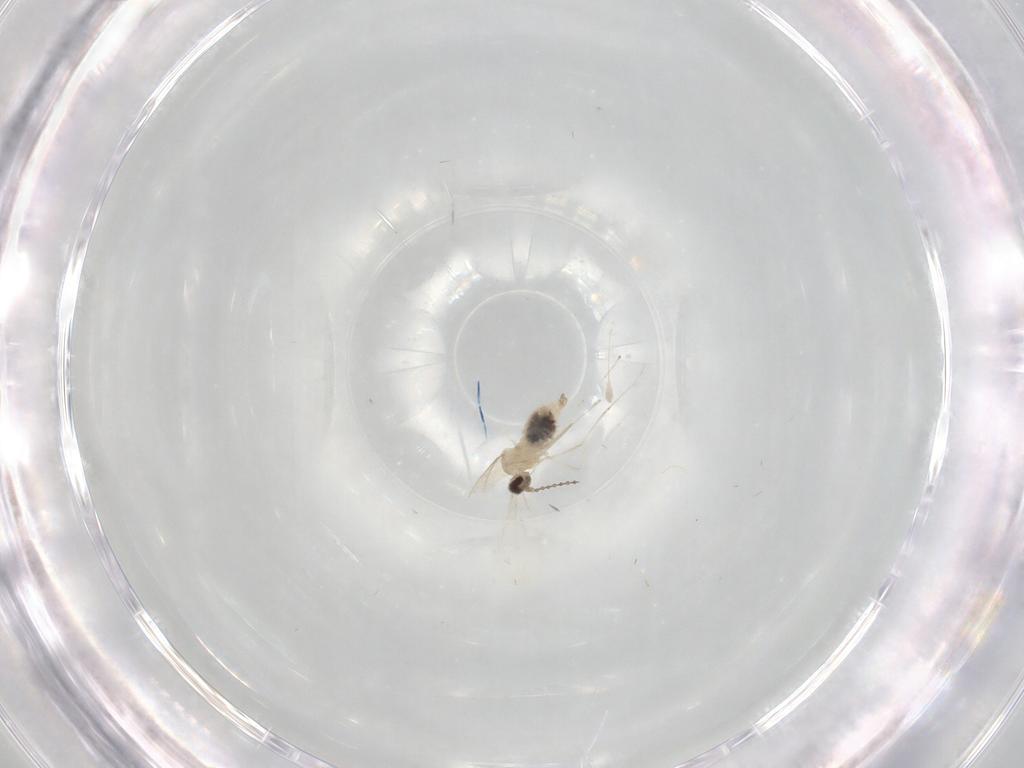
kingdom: Animalia
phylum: Arthropoda
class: Insecta
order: Diptera
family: Cecidomyiidae
